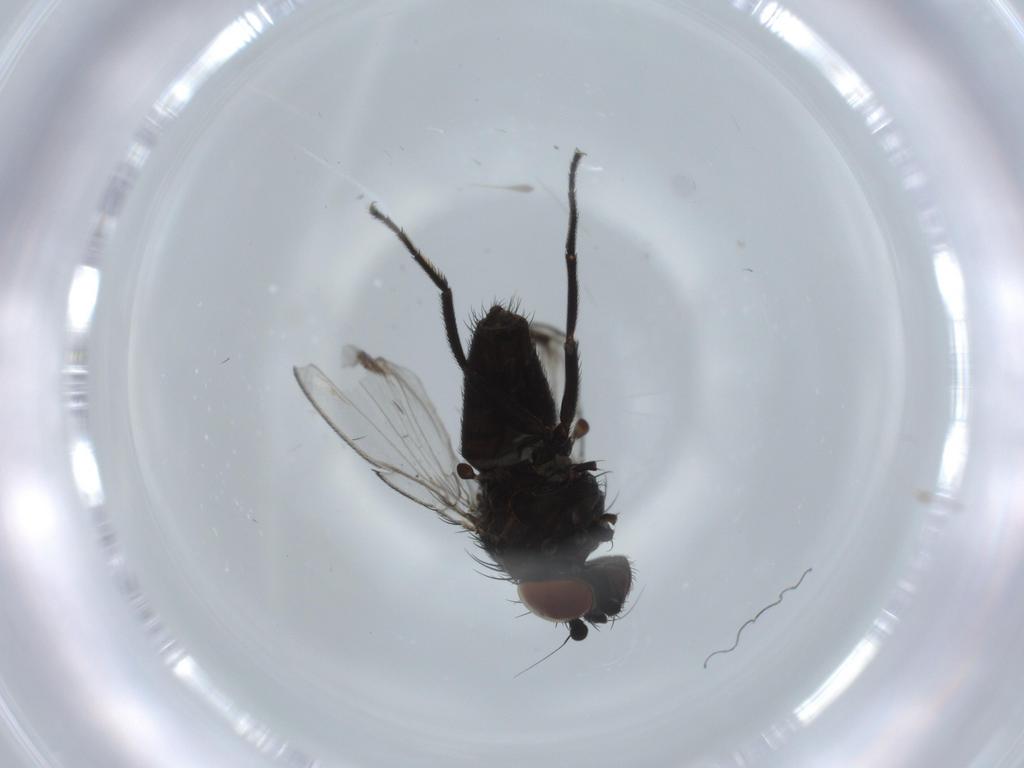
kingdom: Animalia
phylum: Arthropoda
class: Insecta
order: Diptera
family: Milichiidae
